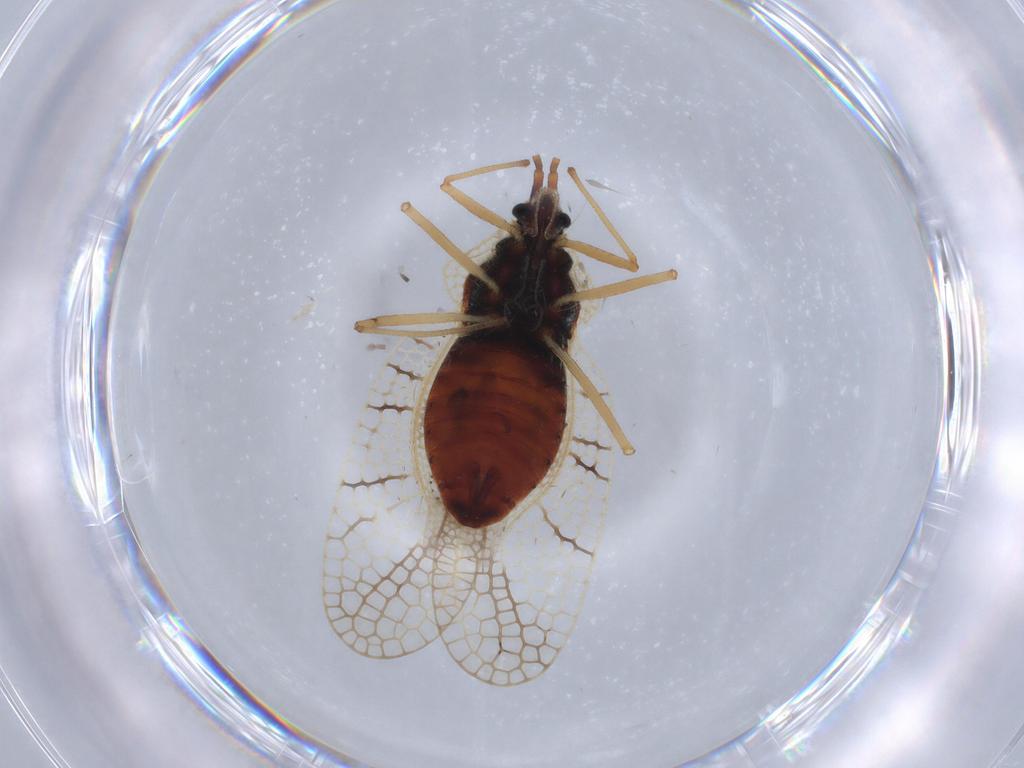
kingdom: Animalia
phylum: Arthropoda
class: Insecta
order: Hemiptera
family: Tingidae
